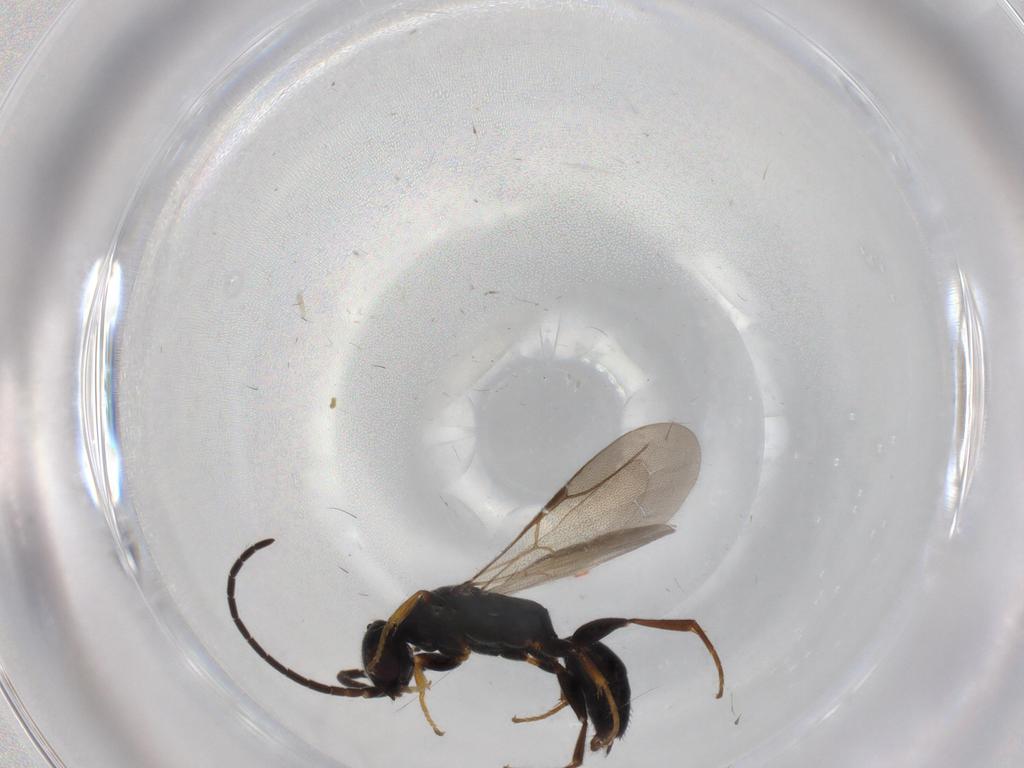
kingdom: Animalia
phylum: Arthropoda
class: Insecta
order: Hymenoptera
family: Bethylidae
